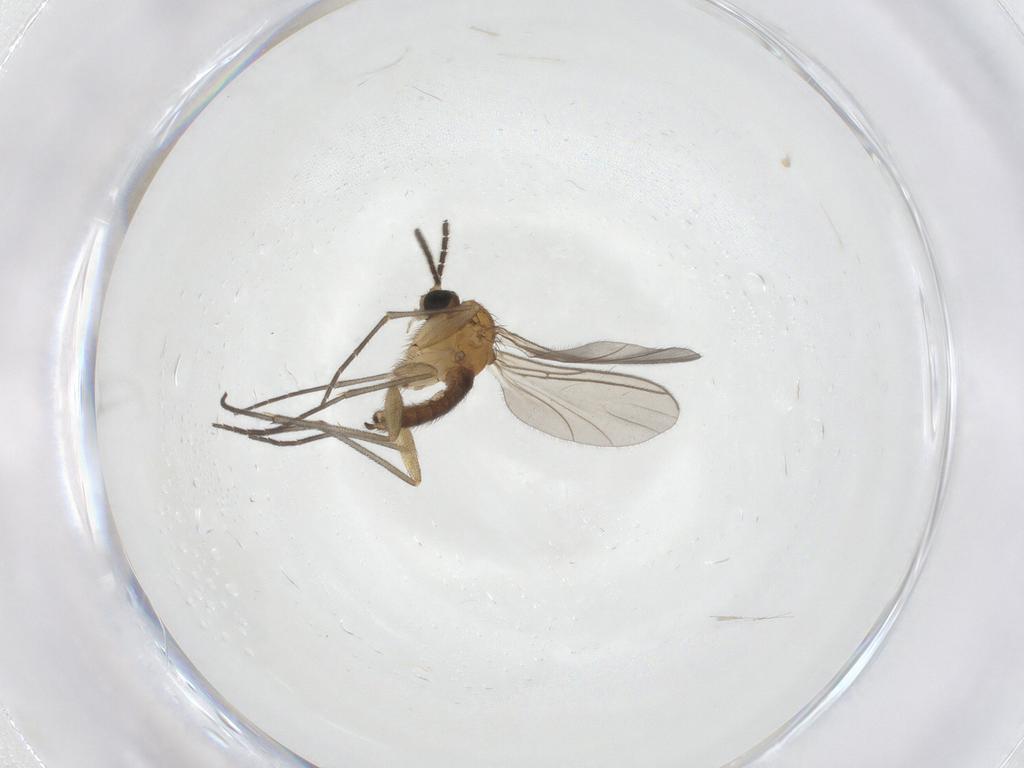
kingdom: Animalia
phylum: Arthropoda
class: Insecta
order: Diptera
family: Sciaridae
